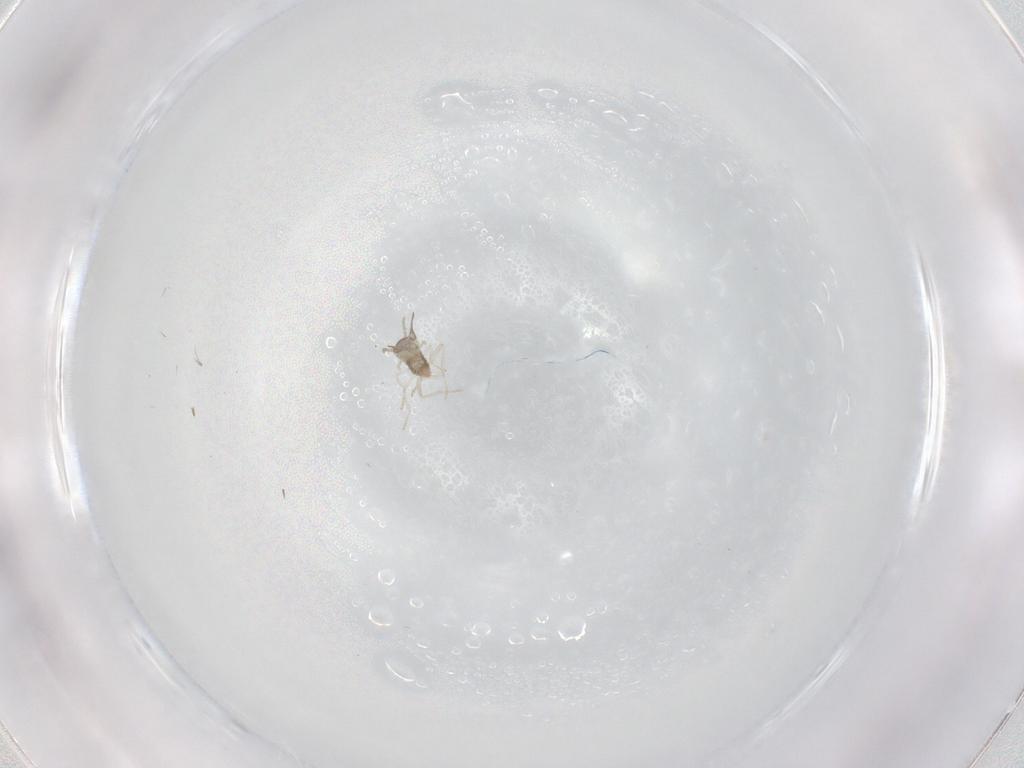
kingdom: Animalia
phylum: Arthropoda
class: Insecta
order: Diptera
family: Cecidomyiidae
